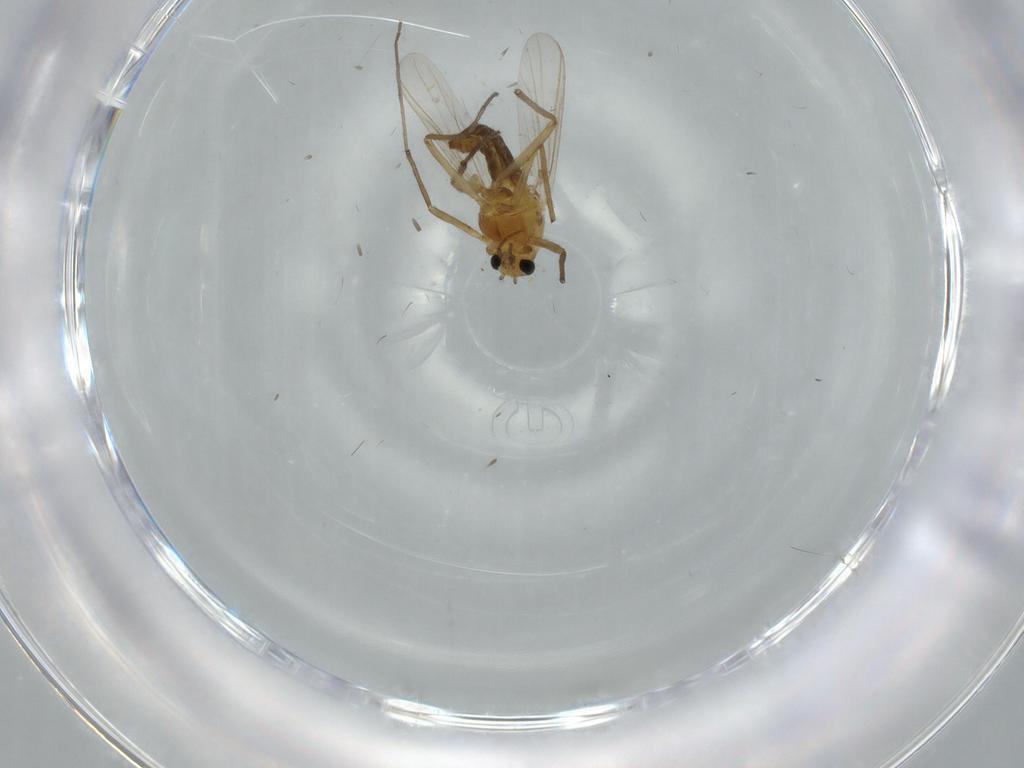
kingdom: Animalia
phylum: Arthropoda
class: Insecta
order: Diptera
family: Chironomidae
